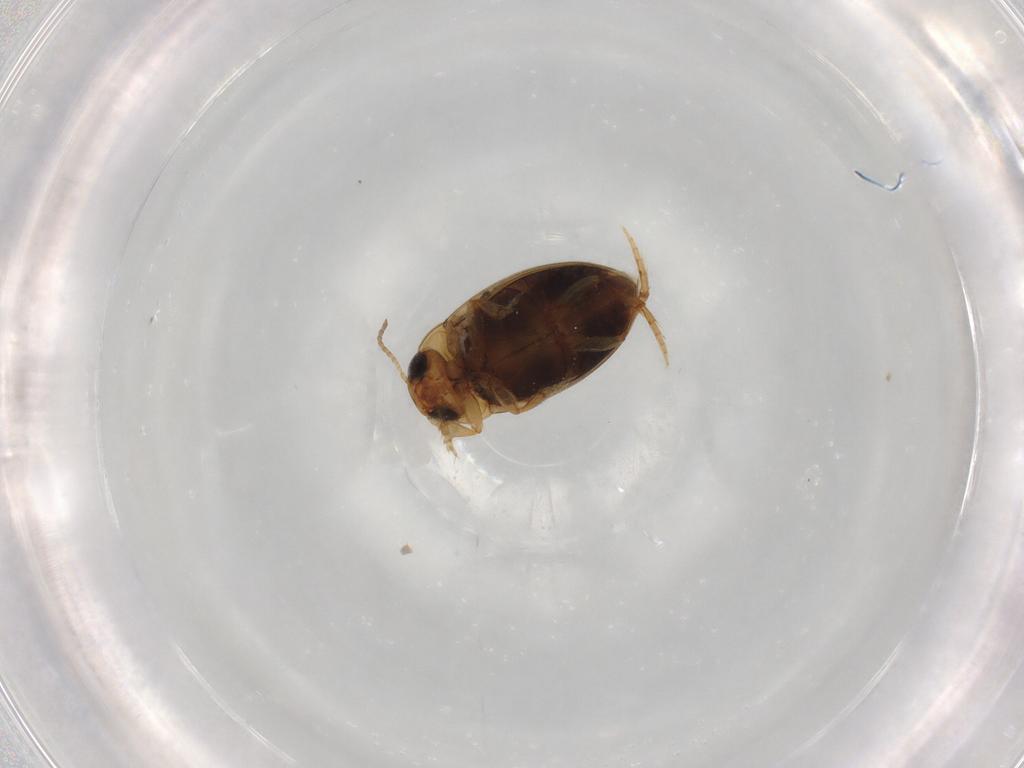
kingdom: Animalia
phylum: Arthropoda
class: Insecta
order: Coleoptera
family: Dytiscidae
